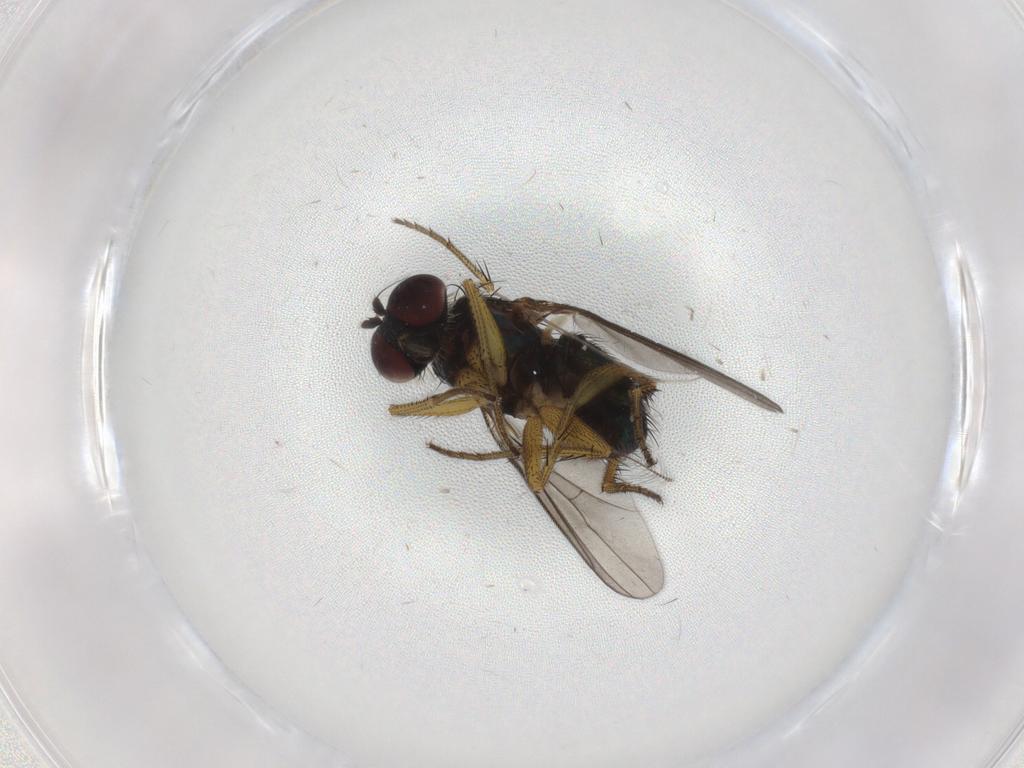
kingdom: Animalia
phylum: Arthropoda
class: Insecta
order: Diptera
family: Dolichopodidae
